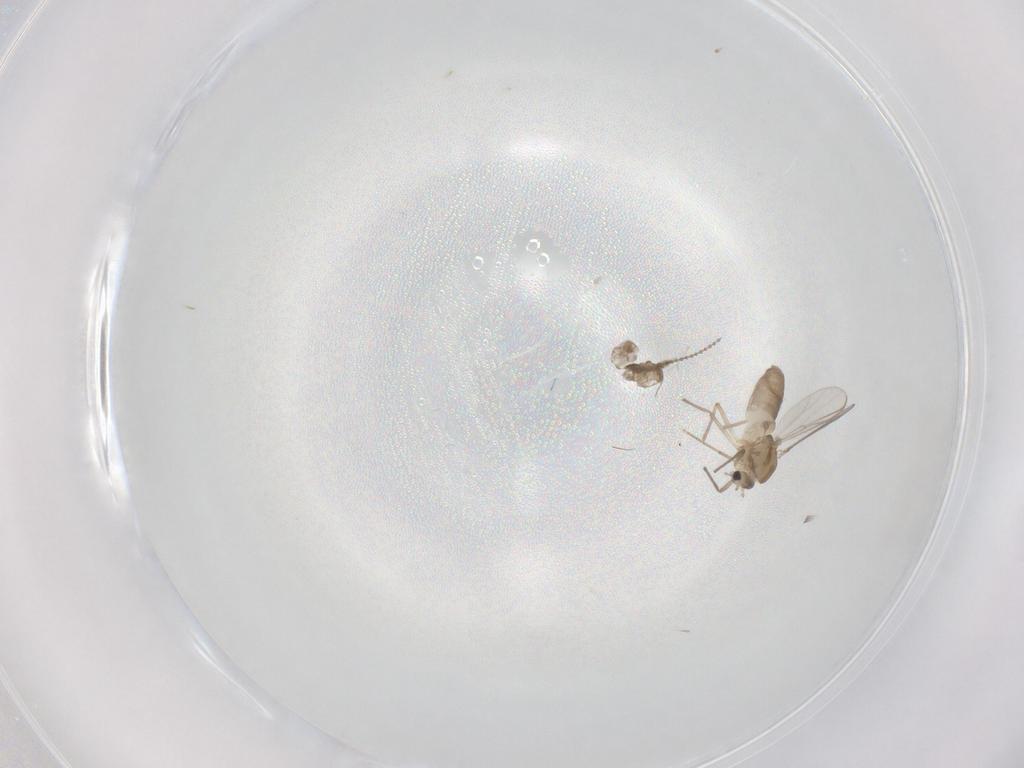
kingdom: Animalia
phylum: Arthropoda
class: Insecta
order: Diptera
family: Chironomidae
